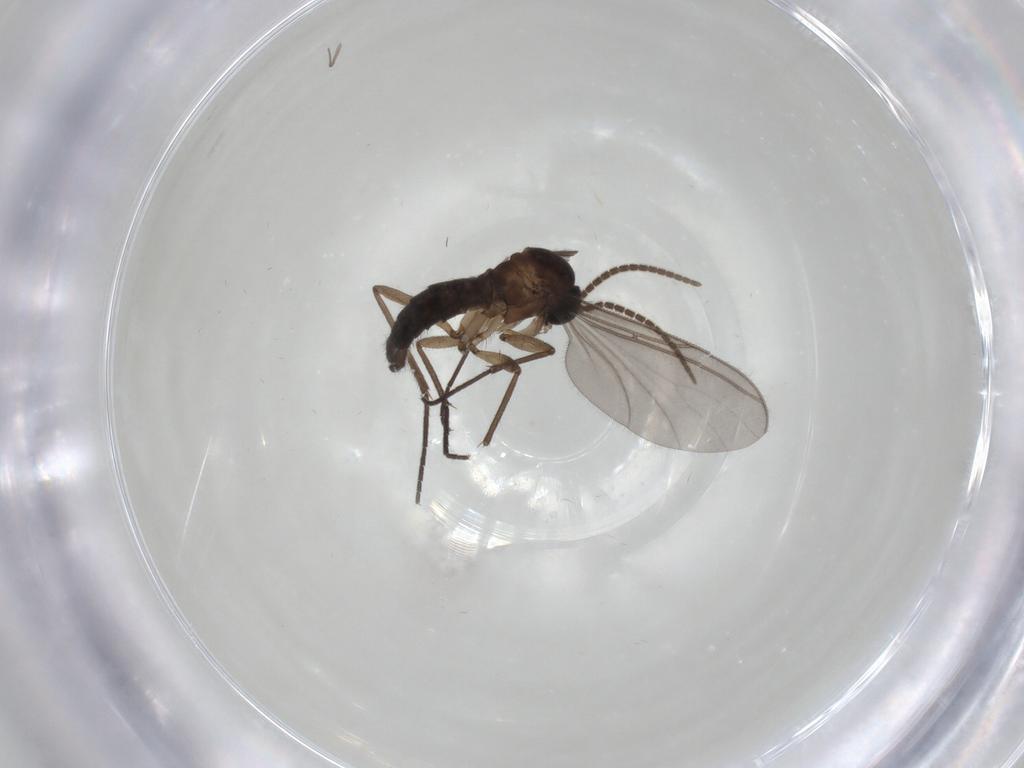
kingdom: Animalia
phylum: Arthropoda
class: Insecta
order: Diptera
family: Sciaridae
